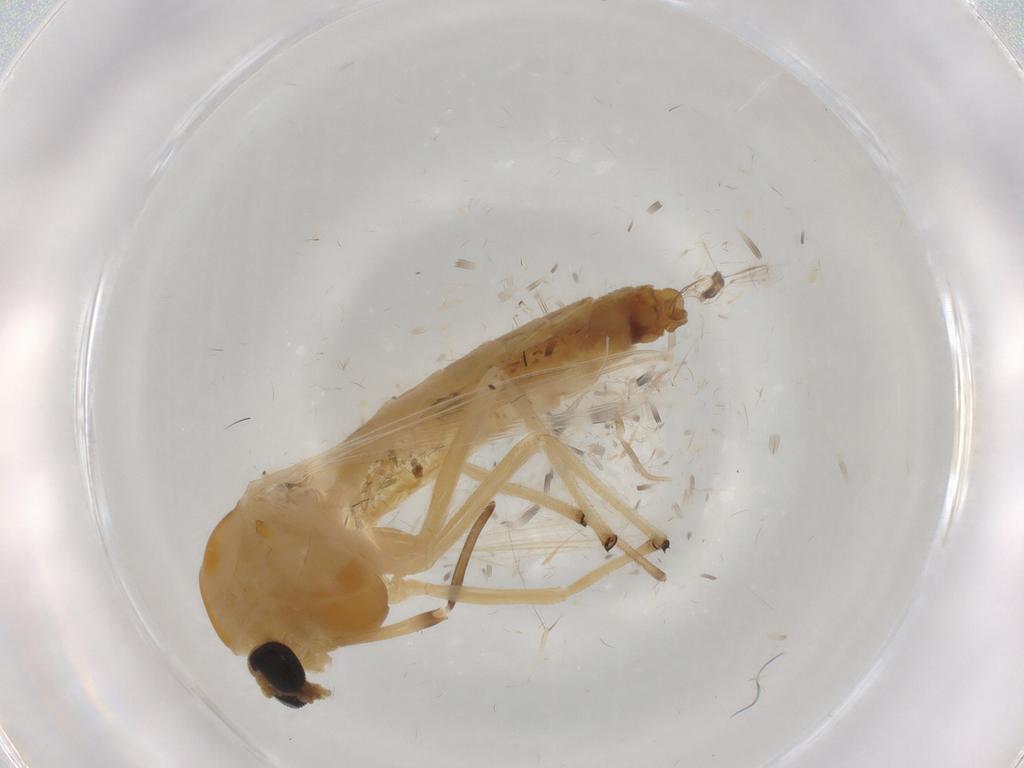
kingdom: Animalia
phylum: Arthropoda
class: Insecta
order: Diptera
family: Chironomidae
